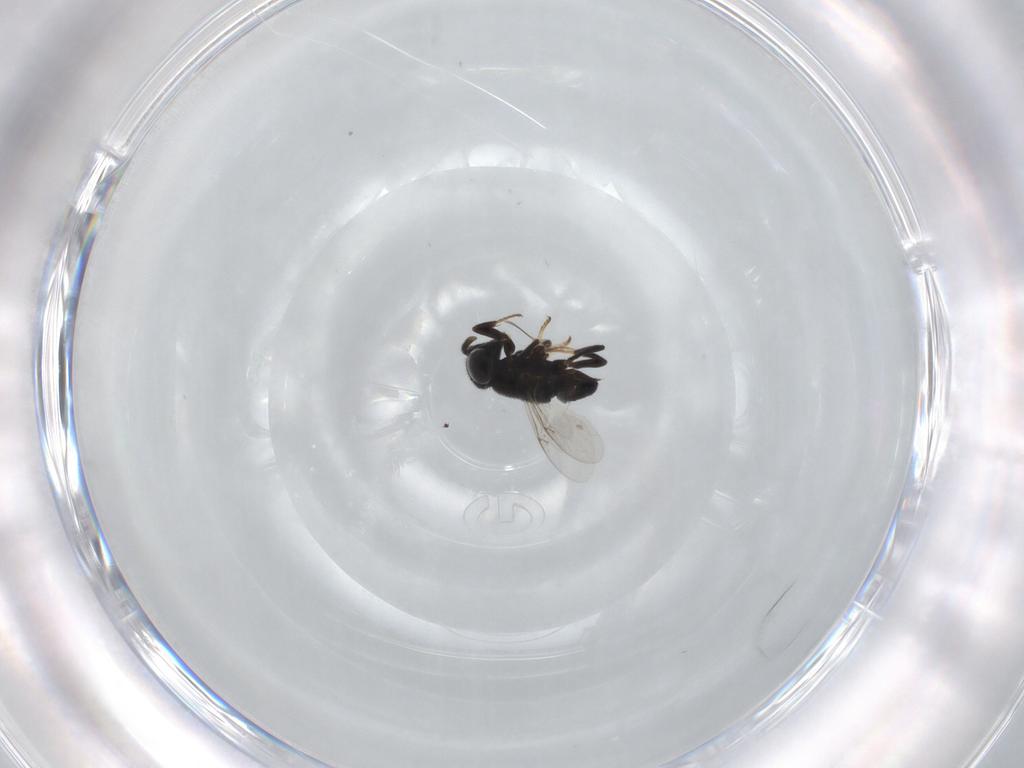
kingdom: Animalia
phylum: Arthropoda
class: Insecta
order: Hymenoptera
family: Encyrtidae
